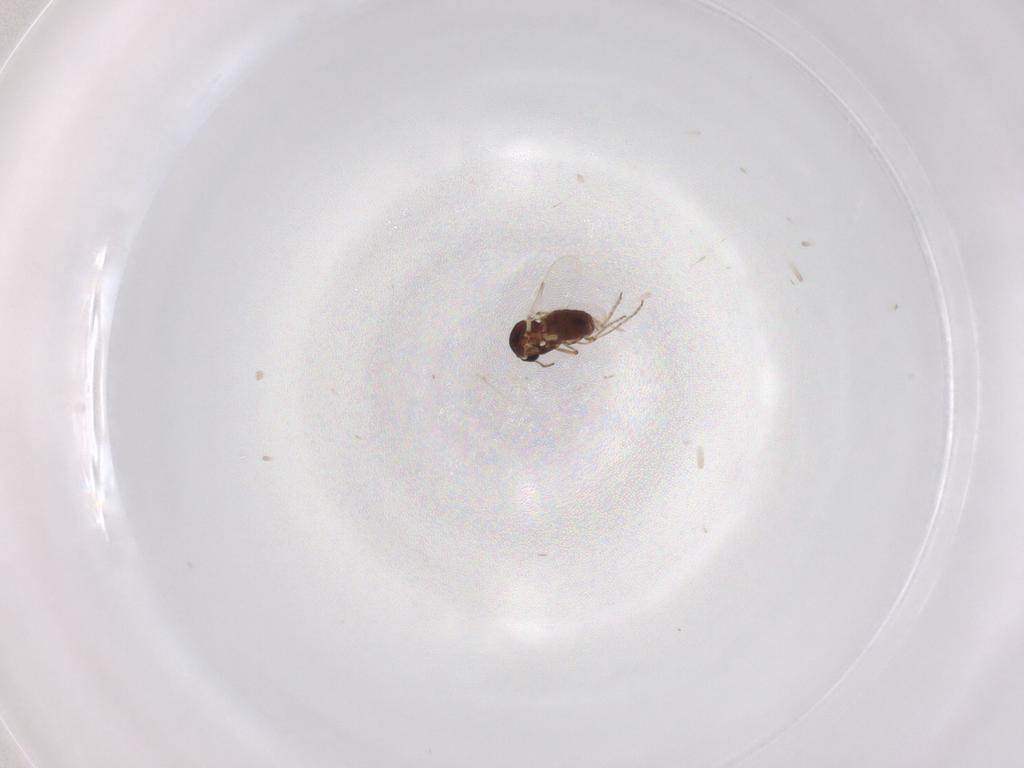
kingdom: Animalia
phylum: Arthropoda
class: Insecta
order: Diptera
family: Ceratopogonidae
